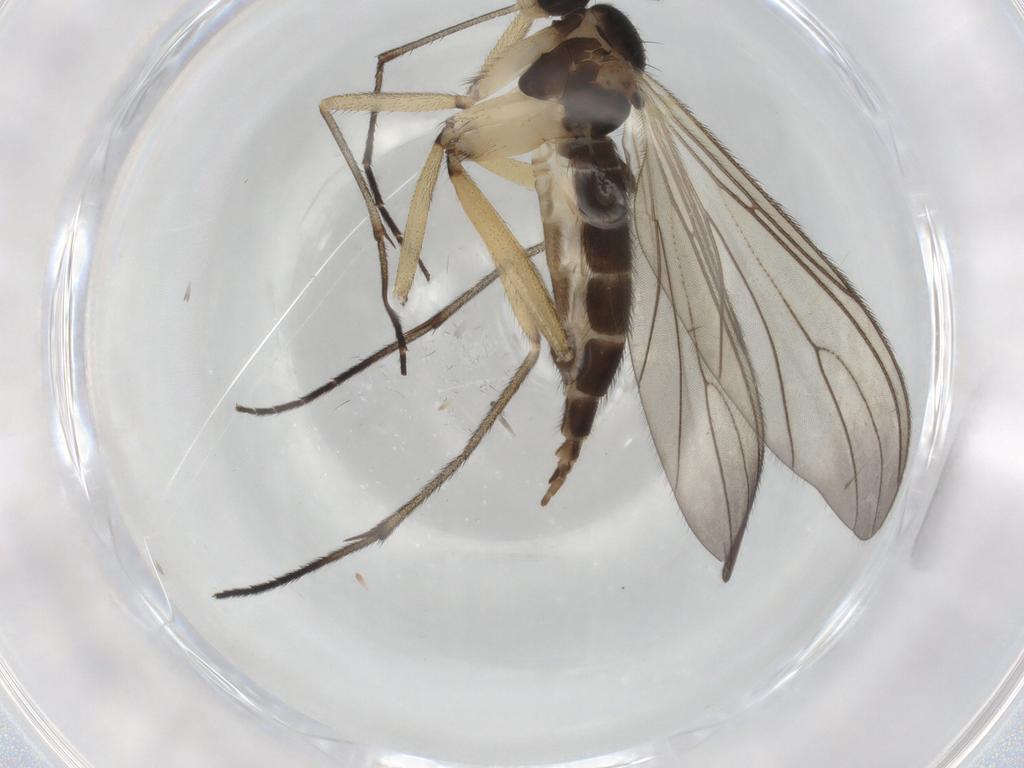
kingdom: Animalia
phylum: Arthropoda
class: Insecta
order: Diptera
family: Sciaridae
